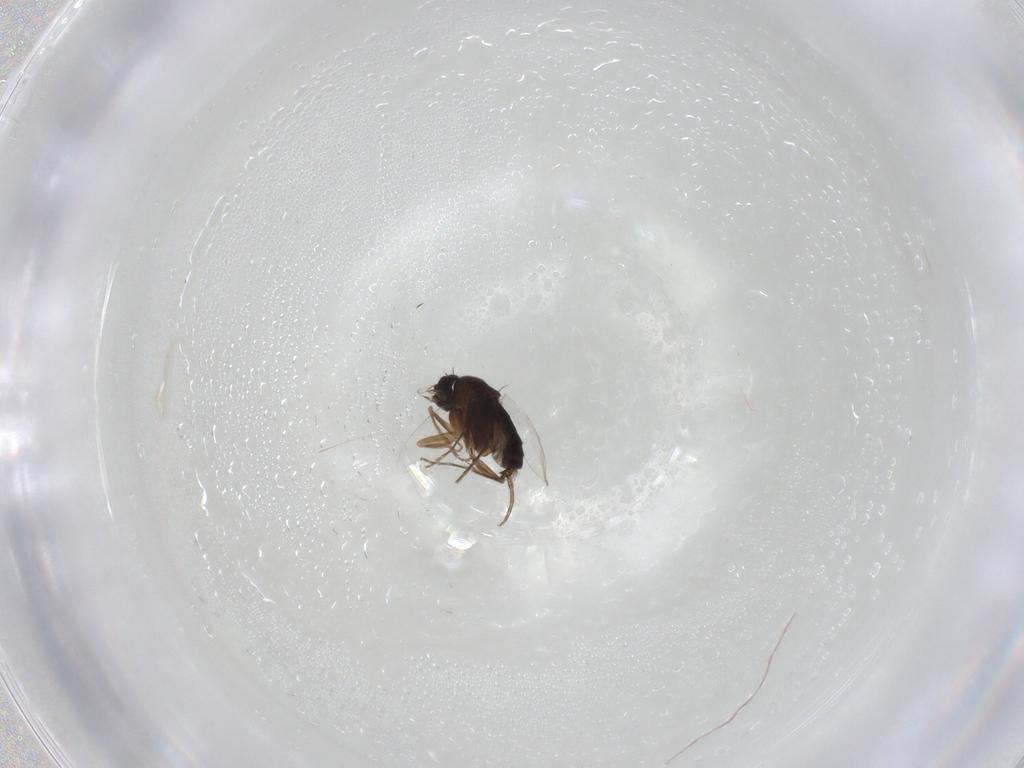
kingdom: Animalia
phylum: Arthropoda
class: Insecta
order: Diptera
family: Phoridae
